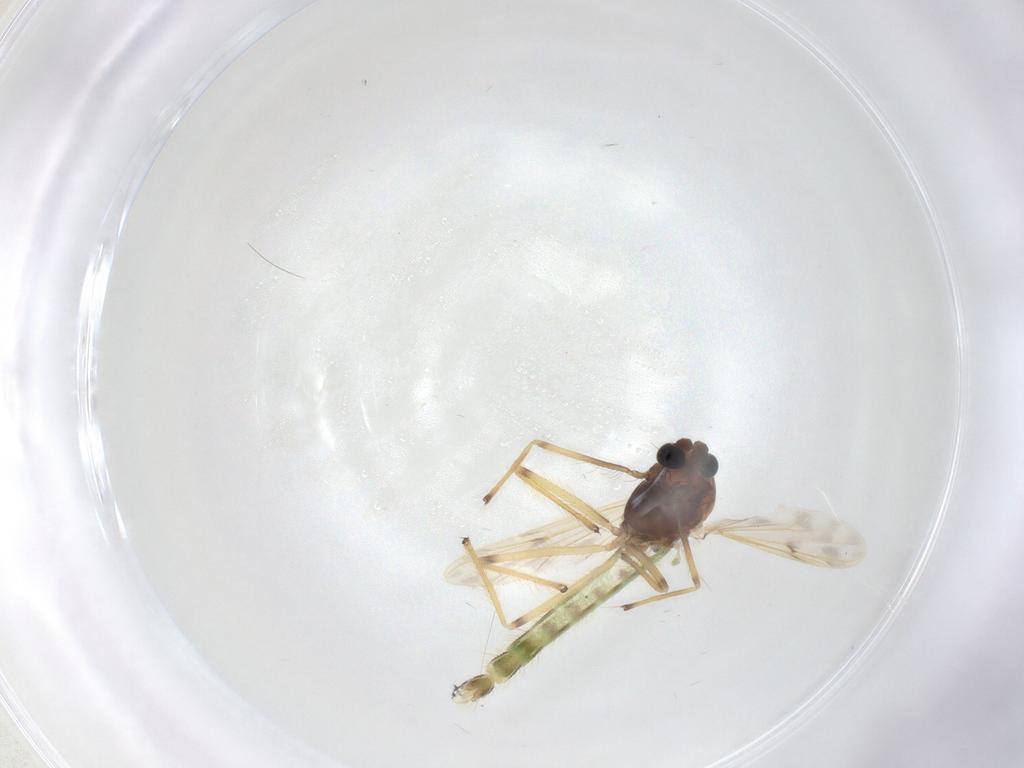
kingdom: Animalia
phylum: Arthropoda
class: Insecta
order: Diptera
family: Chironomidae
